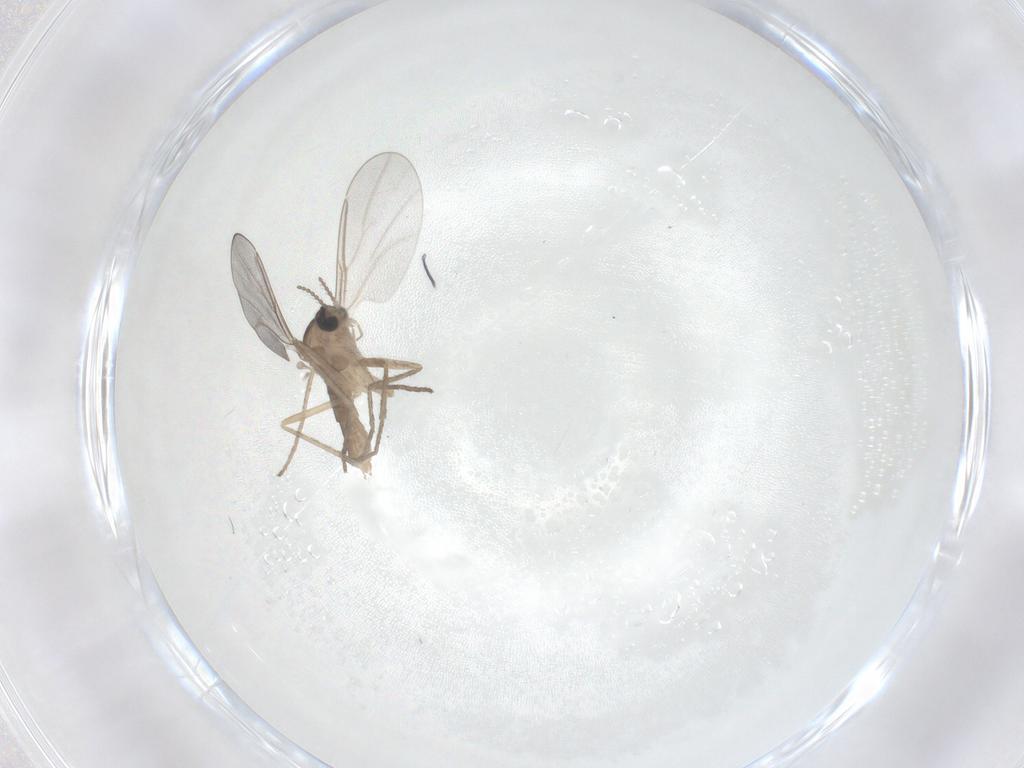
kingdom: Animalia
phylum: Arthropoda
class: Insecta
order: Diptera
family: Cecidomyiidae
